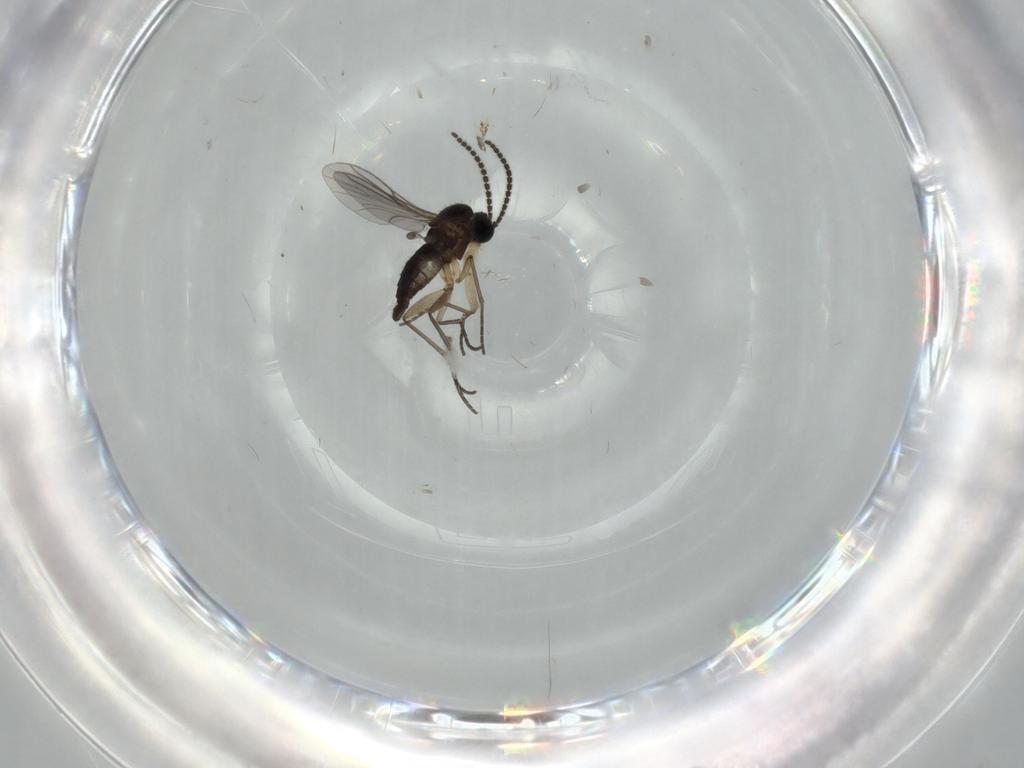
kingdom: Animalia
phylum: Arthropoda
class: Insecta
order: Diptera
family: Sciaridae
